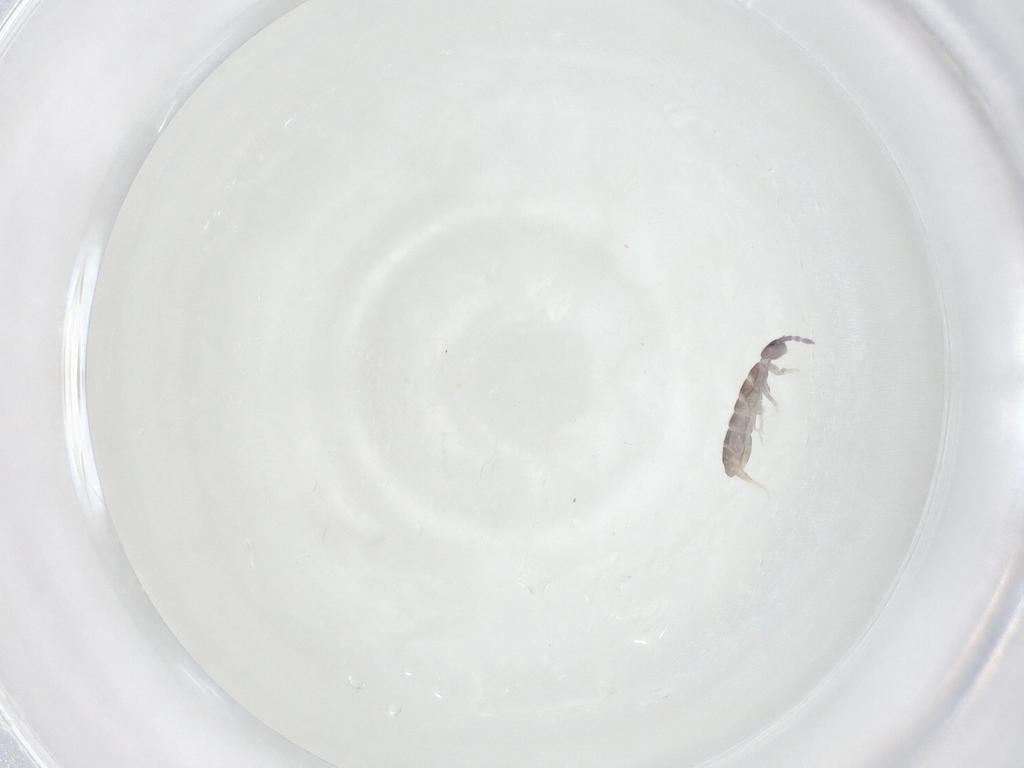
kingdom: Animalia
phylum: Arthropoda
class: Collembola
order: Entomobryomorpha
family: Isotomidae
